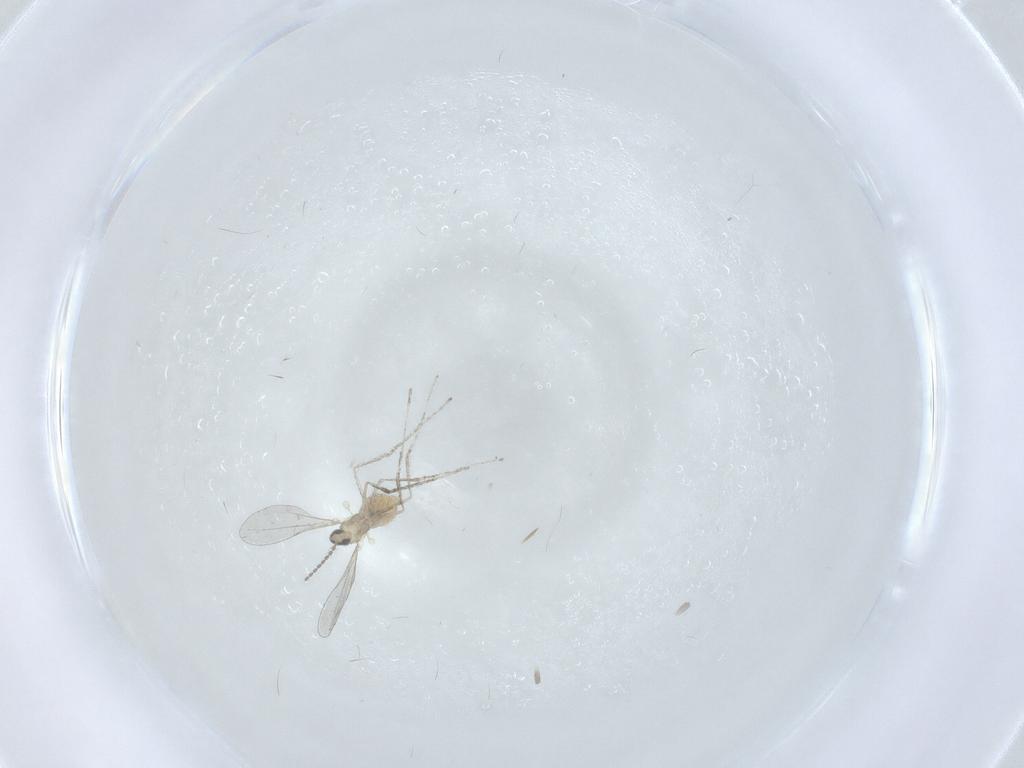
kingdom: Animalia
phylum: Arthropoda
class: Insecta
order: Diptera
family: Cecidomyiidae
